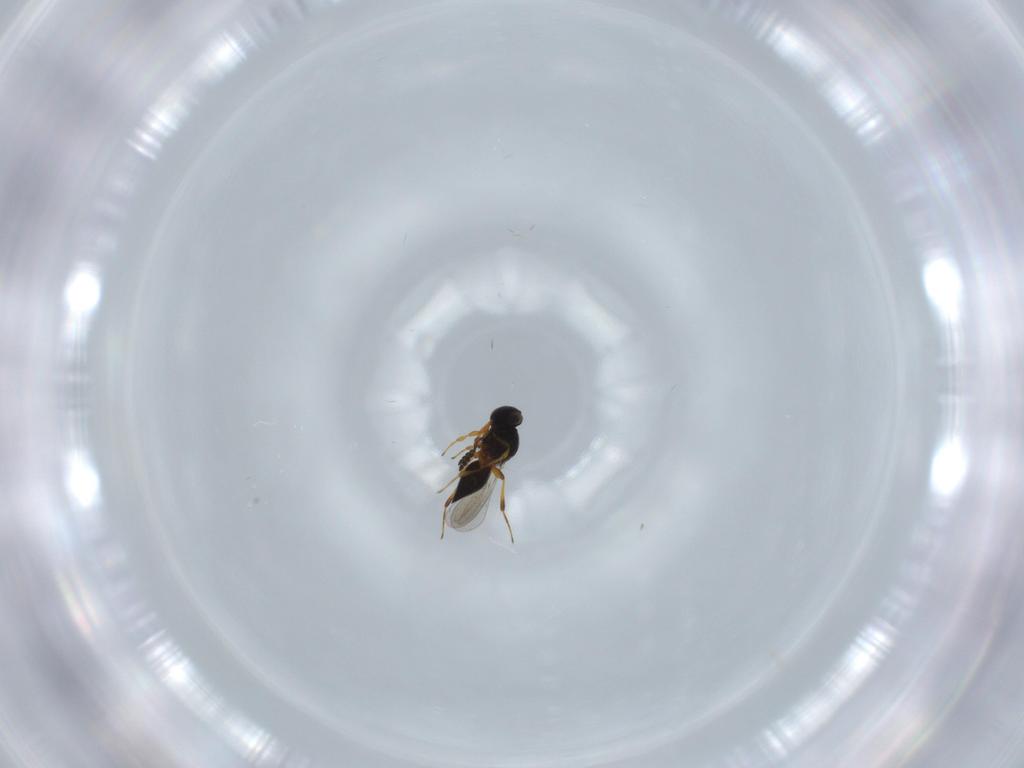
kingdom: Animalia
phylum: Arthropoda
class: Insecta
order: Hymenoptera
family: Platygastridae
